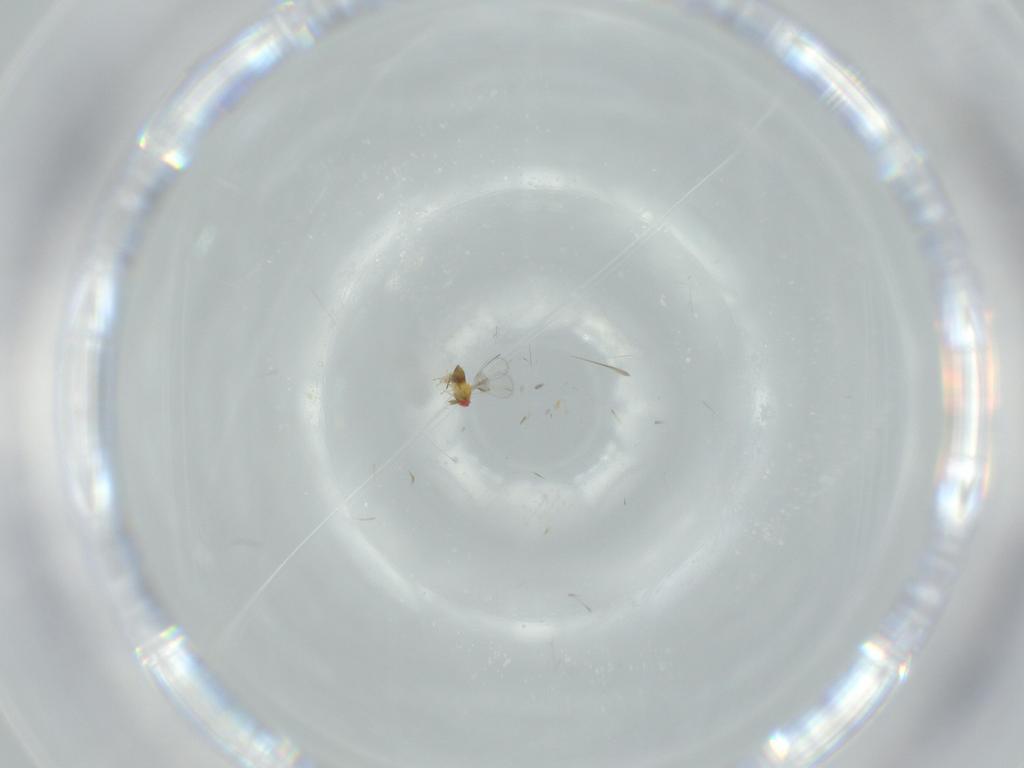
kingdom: Animalia
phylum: Arthropoda
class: Insecta
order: Hymenoptera
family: Trichogrammatidae
